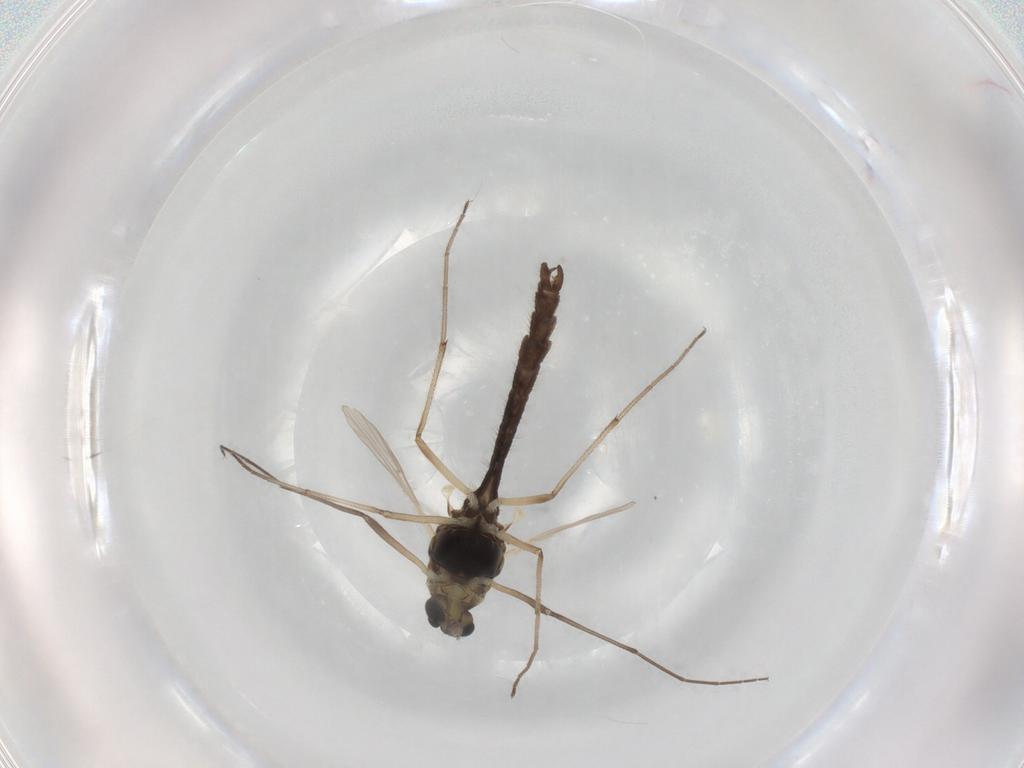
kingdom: Animalia
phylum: Arthropoda
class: Insecta
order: Diptera
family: Chironomidae
